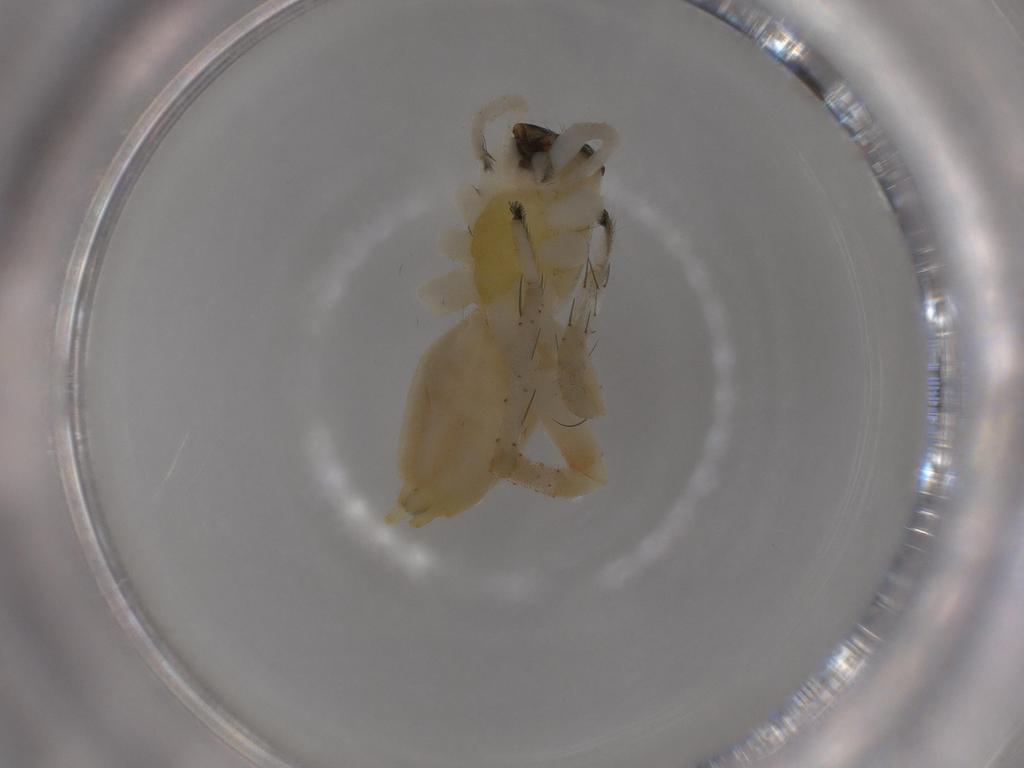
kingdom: Animalia
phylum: Arthropoda
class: Arachnida
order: Araneae
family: Anyphaenidae
